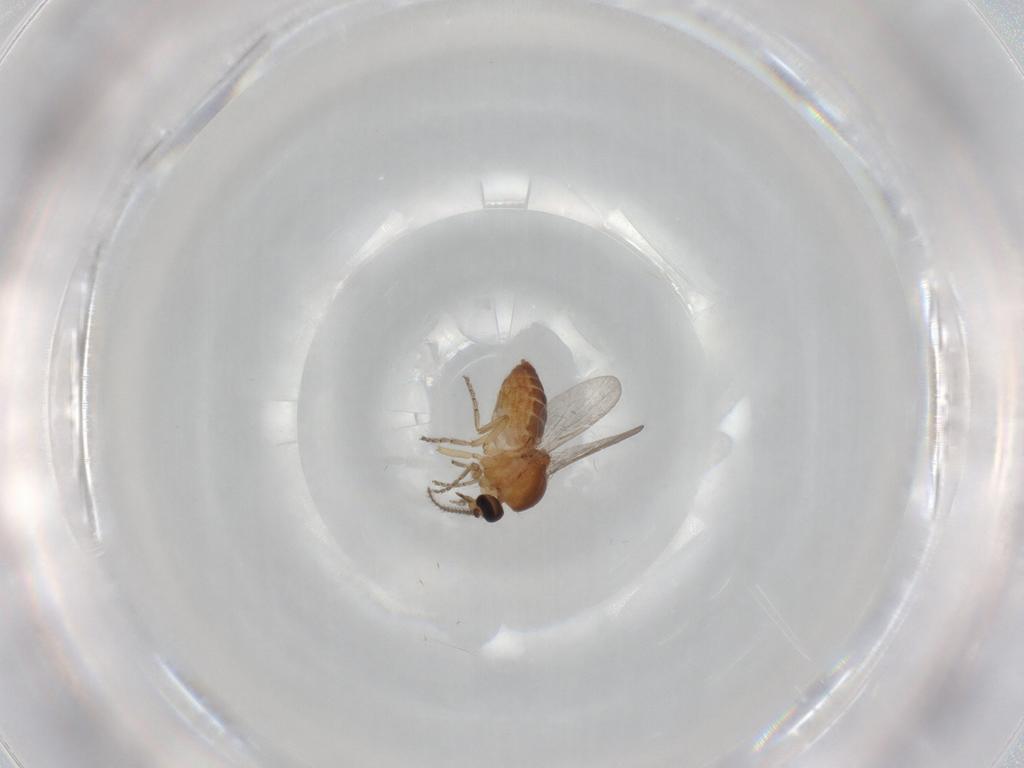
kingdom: Animalia
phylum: Arthropoda
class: Insecta
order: Diptera
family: Ceratopogonidae
